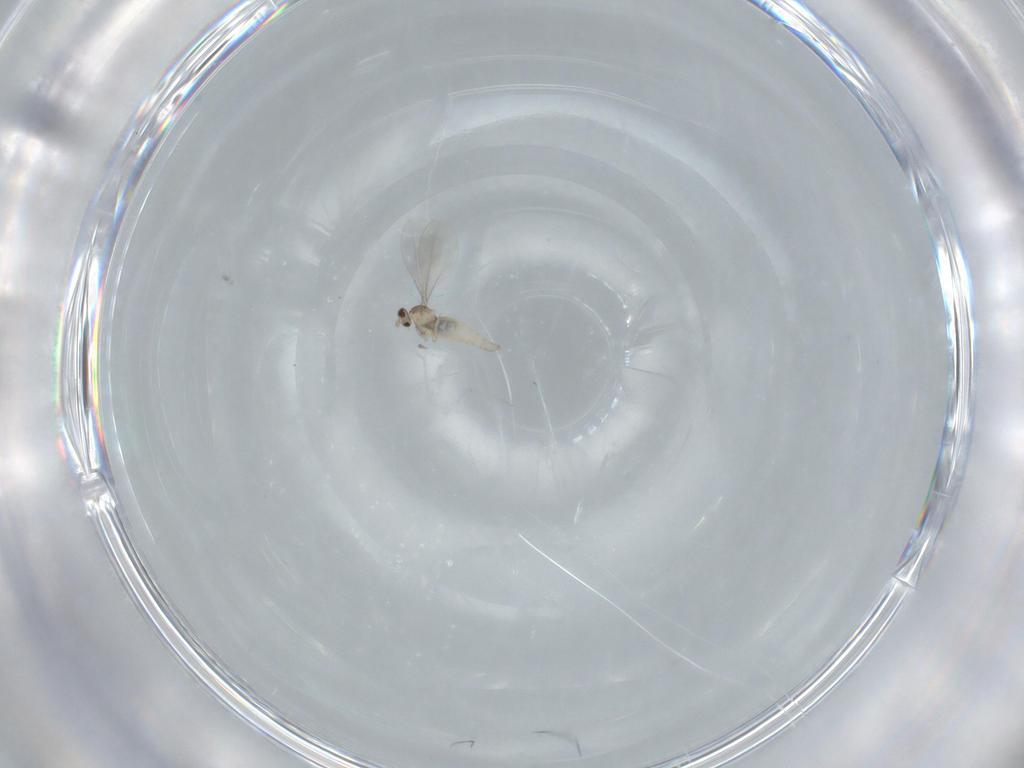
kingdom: Animalia
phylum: Arthropoda
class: Insecta
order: Diptera
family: Cecidomyiidae
